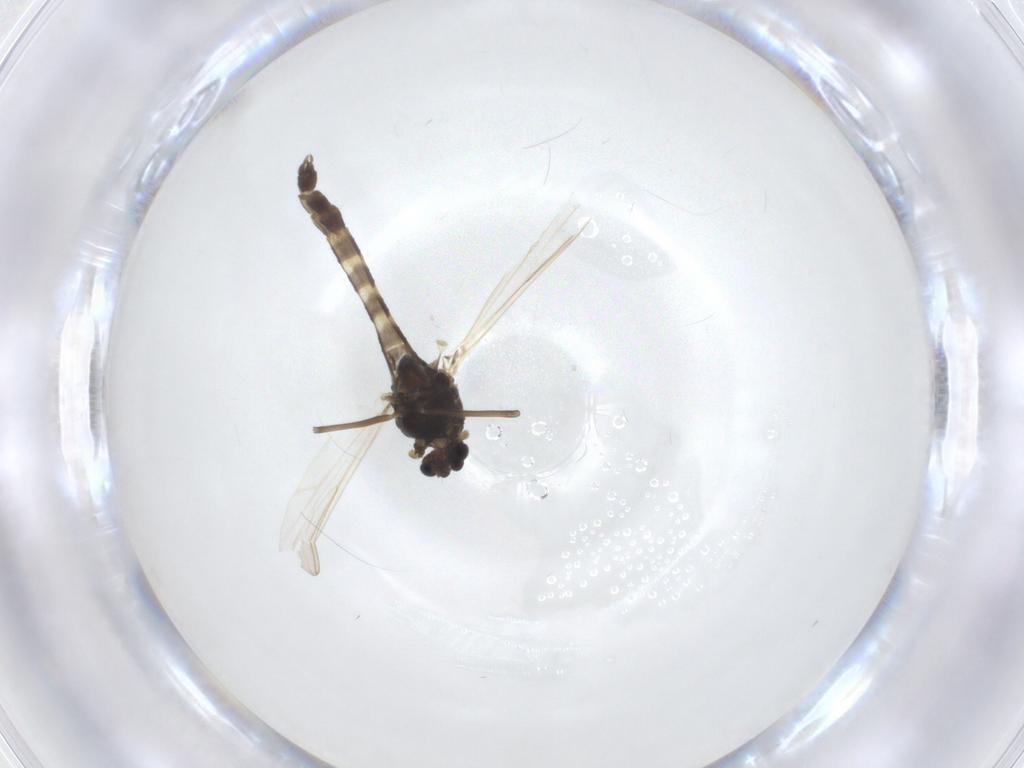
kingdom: Animalia
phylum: Arthropoda
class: Insecta
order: Diptera
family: Chironomidae
